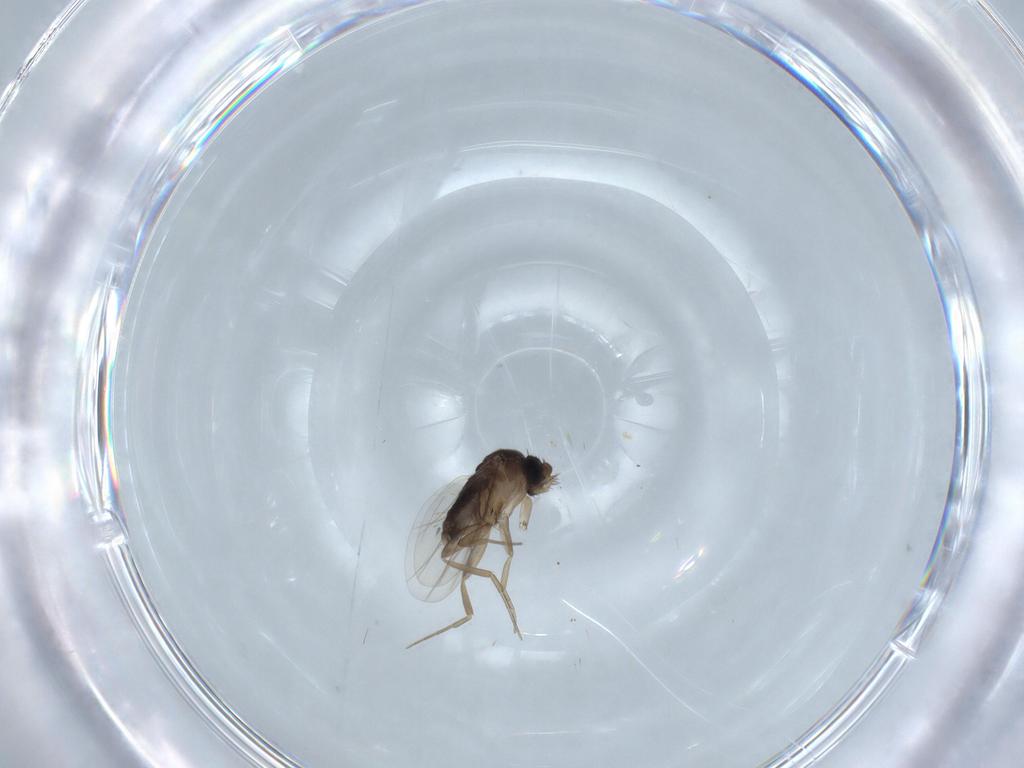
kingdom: Animalia
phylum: Arthropoda
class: Insecta
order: Diptera
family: Phoridae
